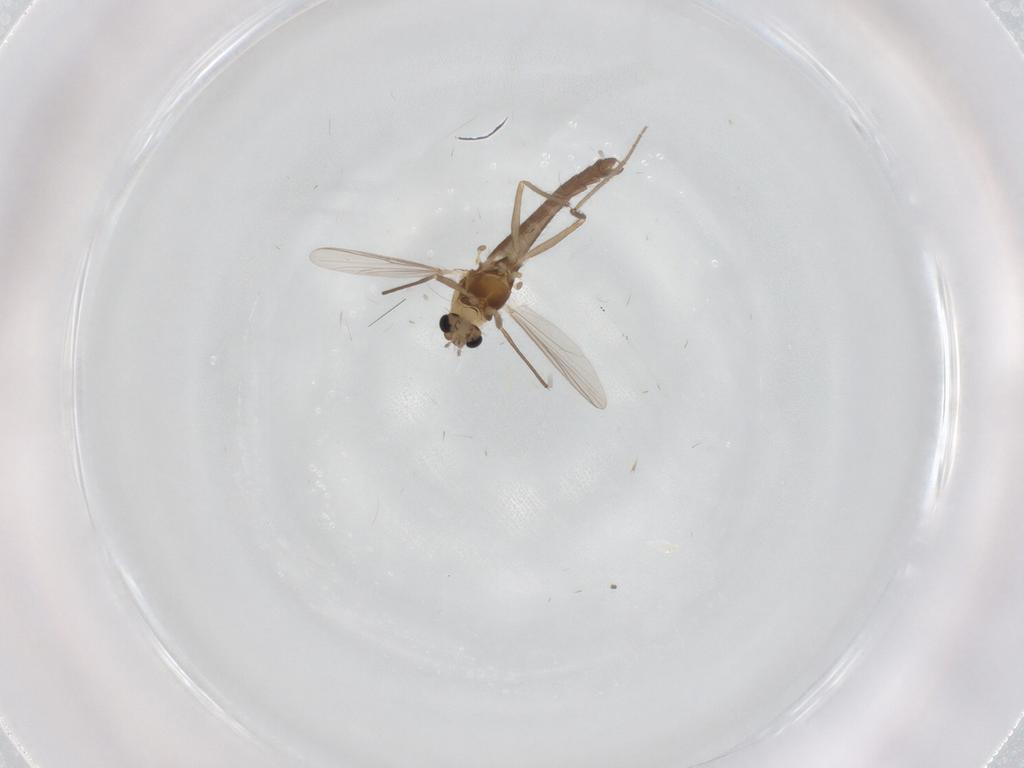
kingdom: Animalia
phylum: Arthropoda
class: Insecta
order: Diptera
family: Chironomidae
